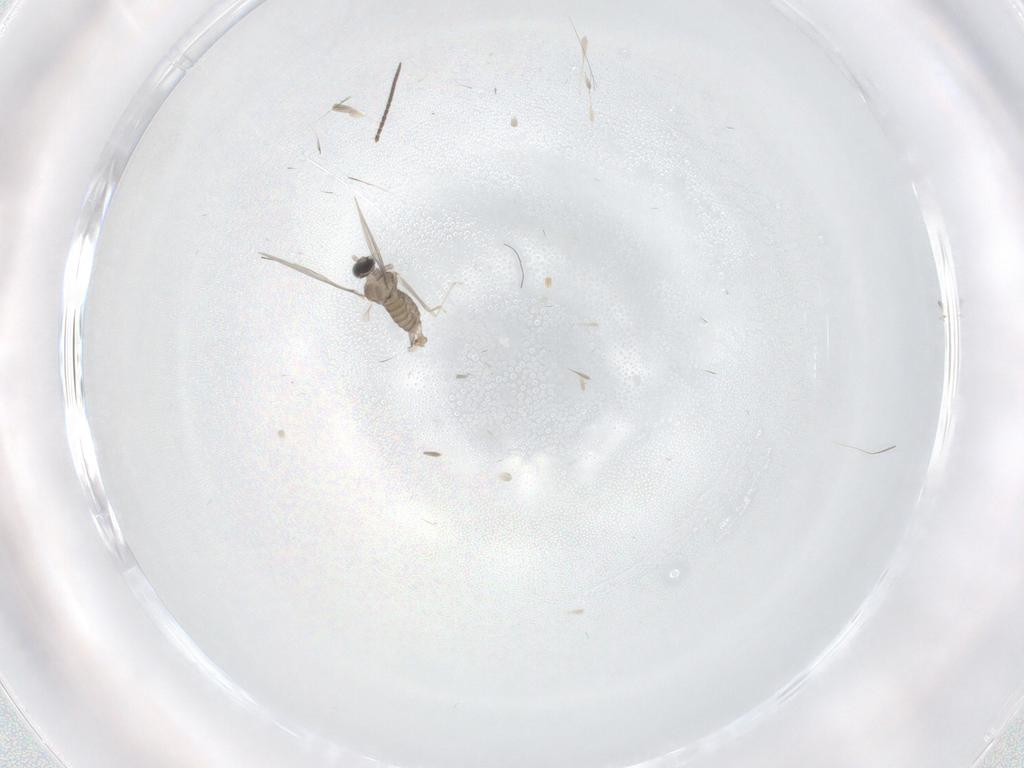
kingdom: Animalia
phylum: Arthropoda
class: Insecta
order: Diptera
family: Cecidomyiidae
